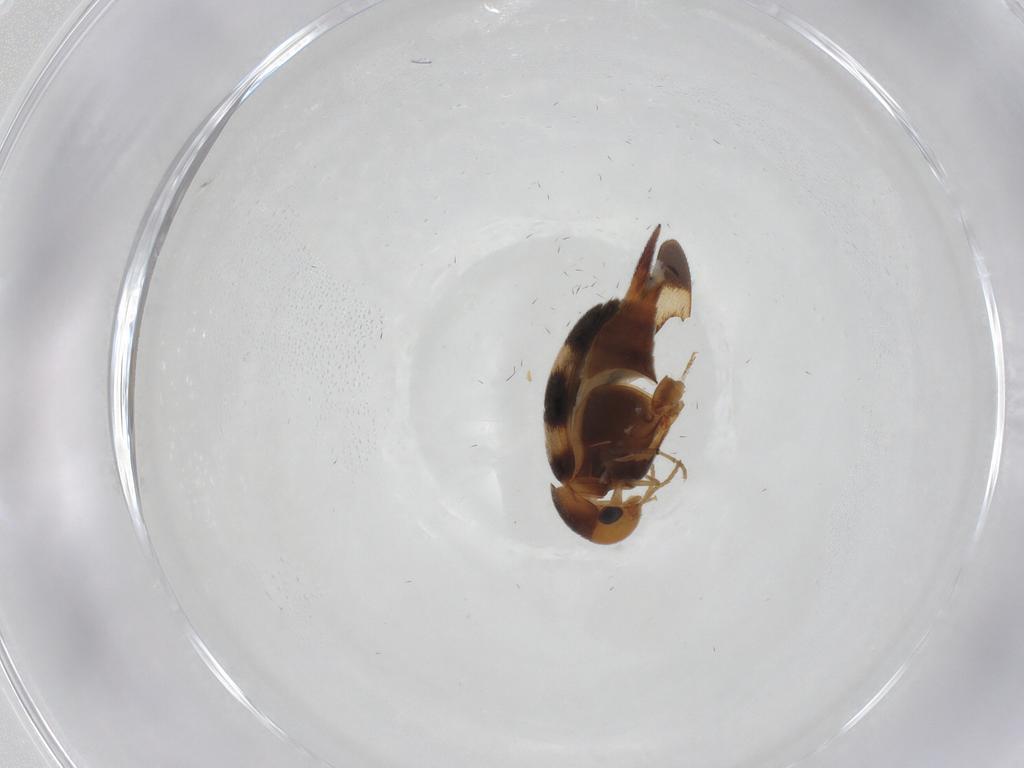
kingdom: Animalia
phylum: Arthropoda
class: Insecta
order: Coleoptera
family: Mordellidae
